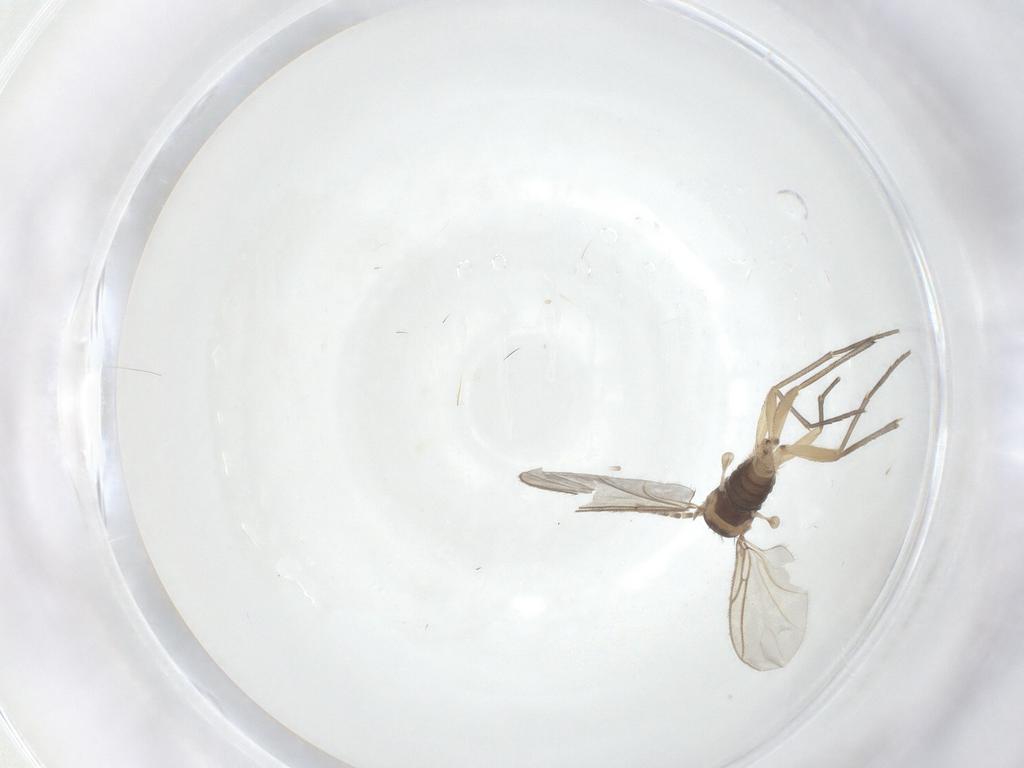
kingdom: Animalia
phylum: Arthropoda
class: Insecta
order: Diptera
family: Sciaridae
